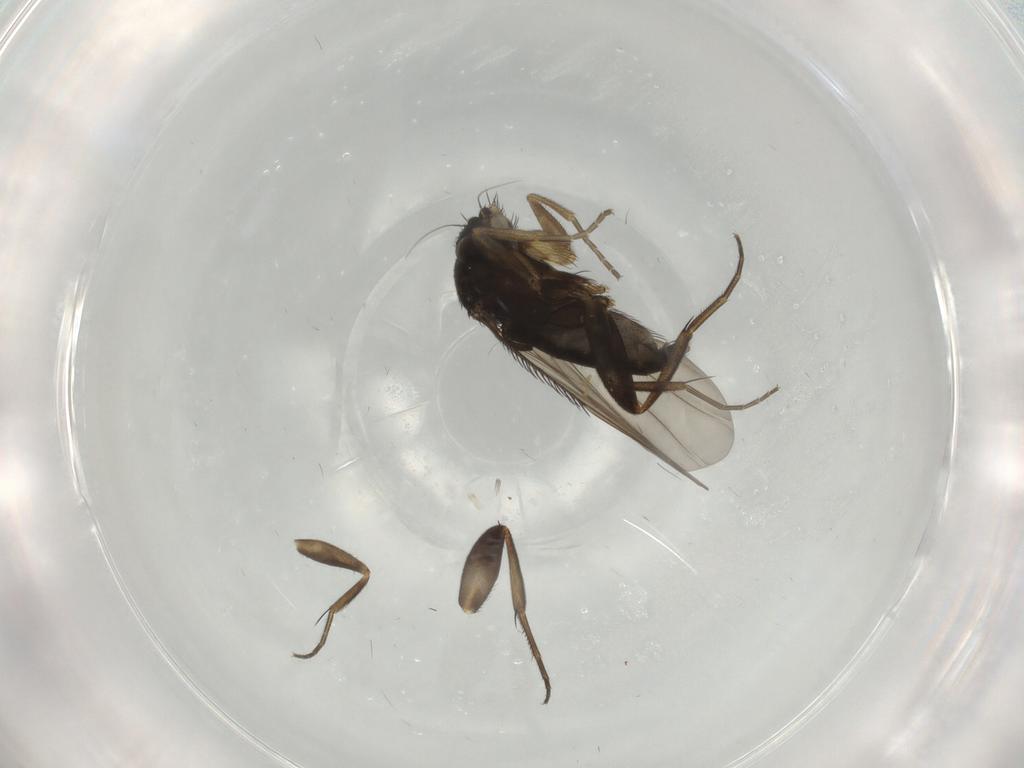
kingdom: Animalia
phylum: Arthropoda
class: Insecta
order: Diptera
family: Phoridae
